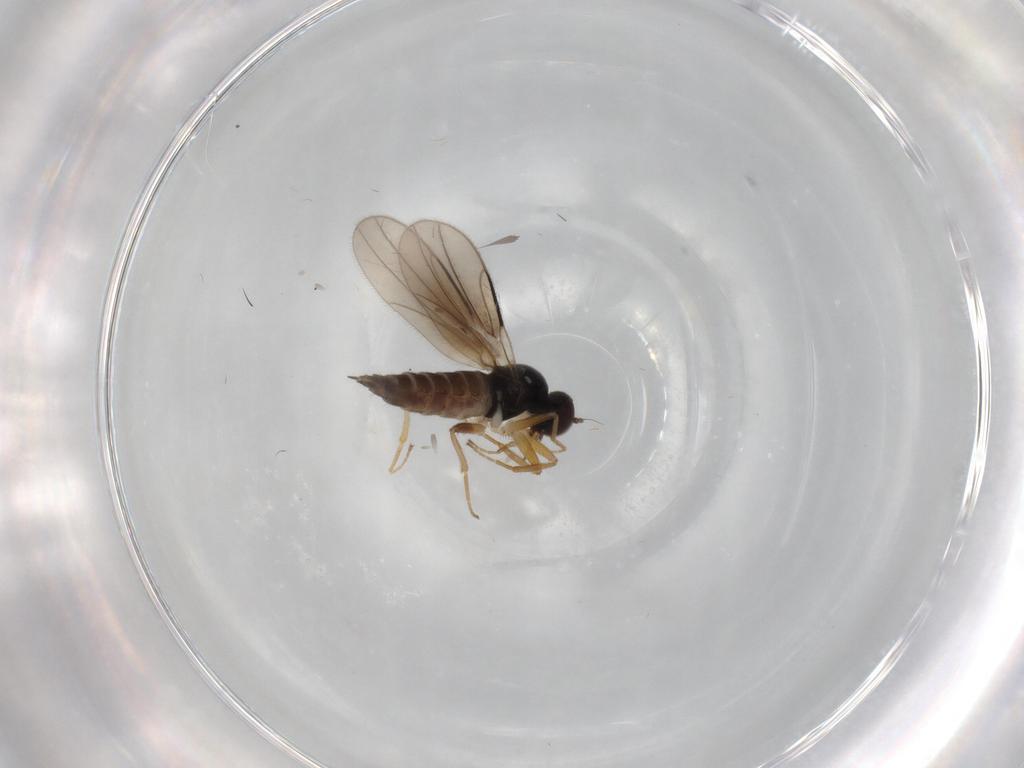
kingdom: Animalia
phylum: Arthropoda
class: Insecta
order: Diptera
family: Hybotidae
